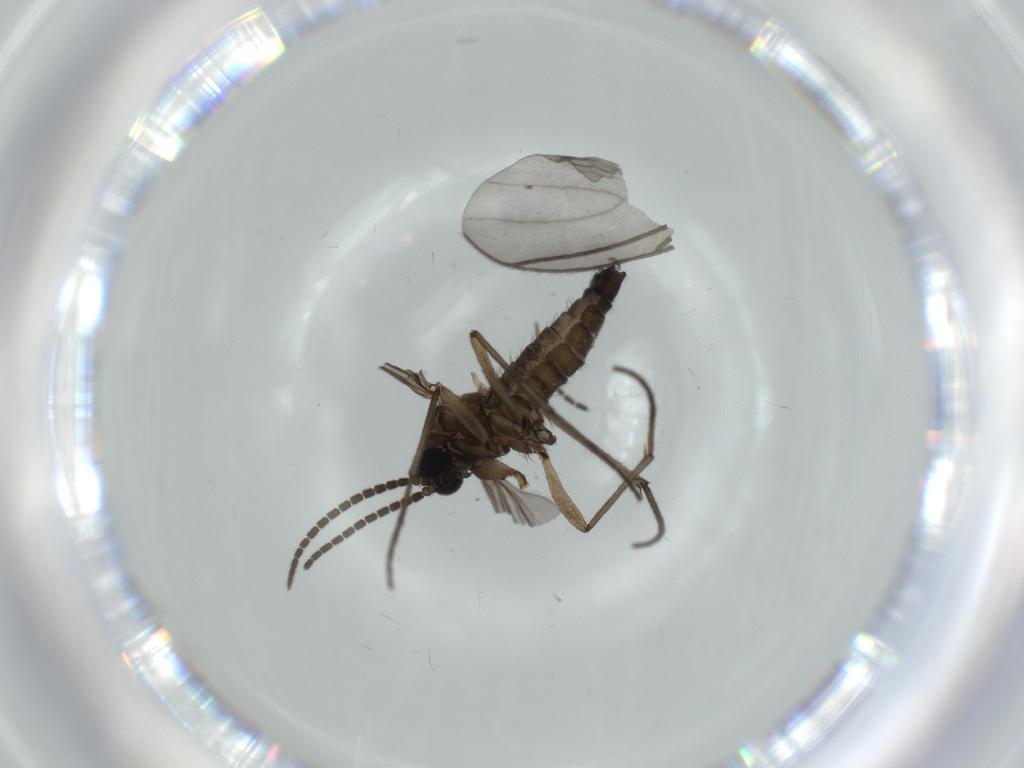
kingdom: Animalia
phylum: Arthropoda
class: Insecta
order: Diptera
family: Sciaridae
